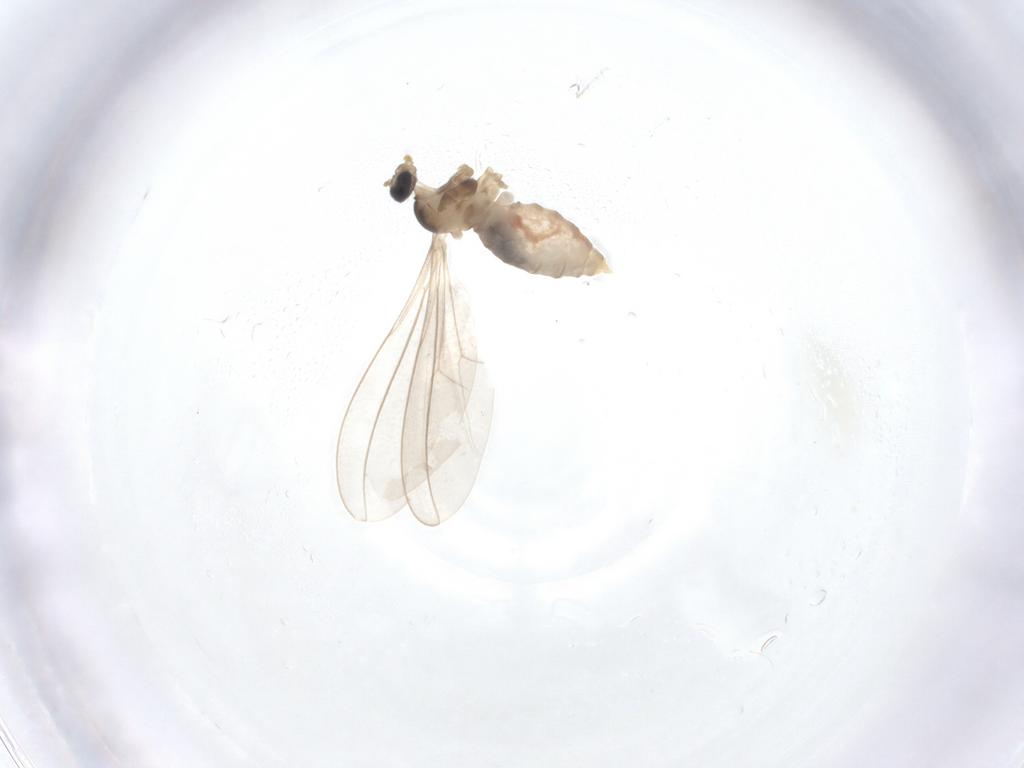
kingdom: Animalia
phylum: Arthropoda
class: Insecta
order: Diptera
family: Cecidomyiidae
